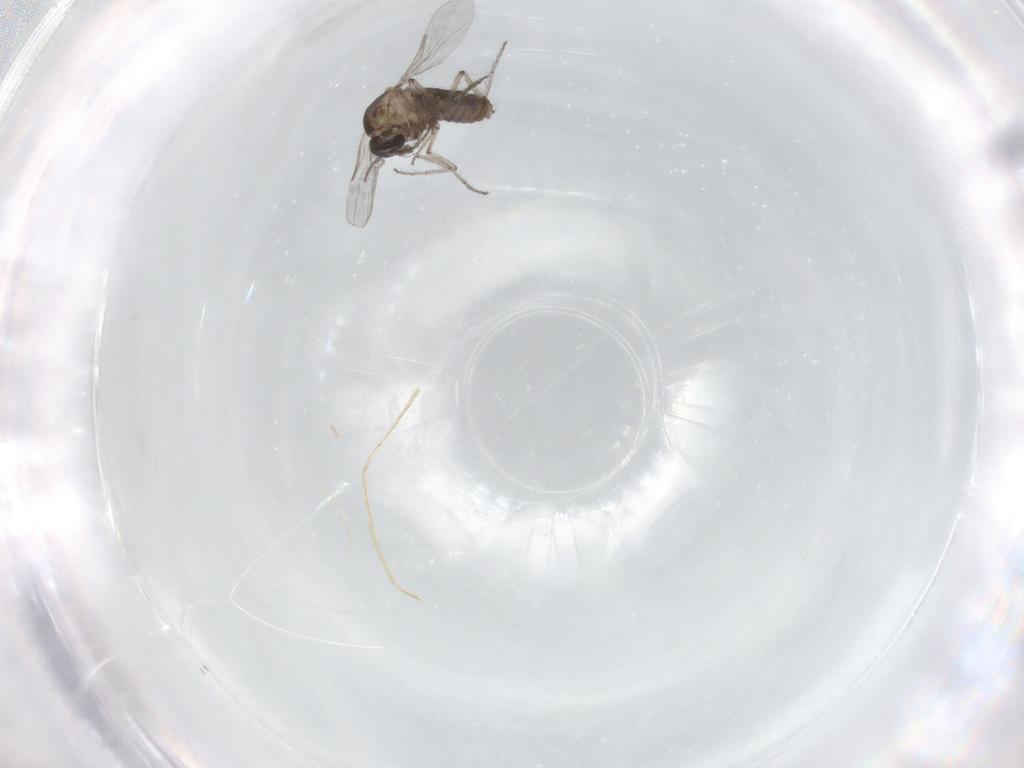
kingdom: Animalia
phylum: Arthropoda
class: Insecta
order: Diptera
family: Ceratopogonidae
